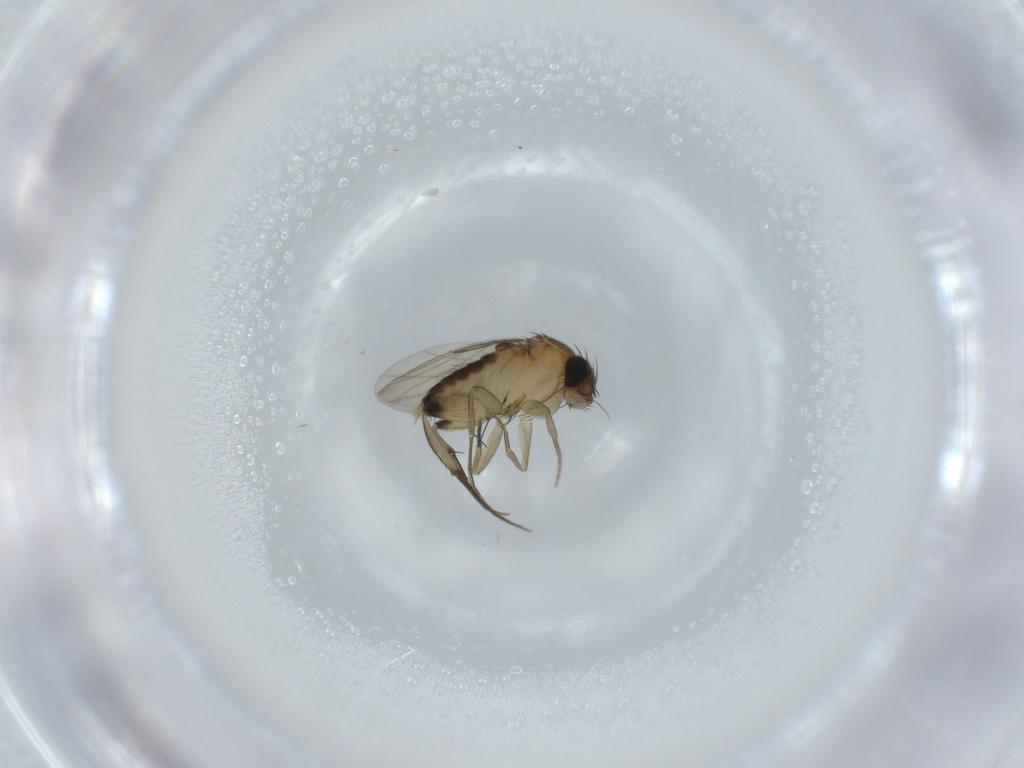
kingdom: Animalia
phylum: Arthropoda
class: Insecta
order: Diptera
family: Phoridae
